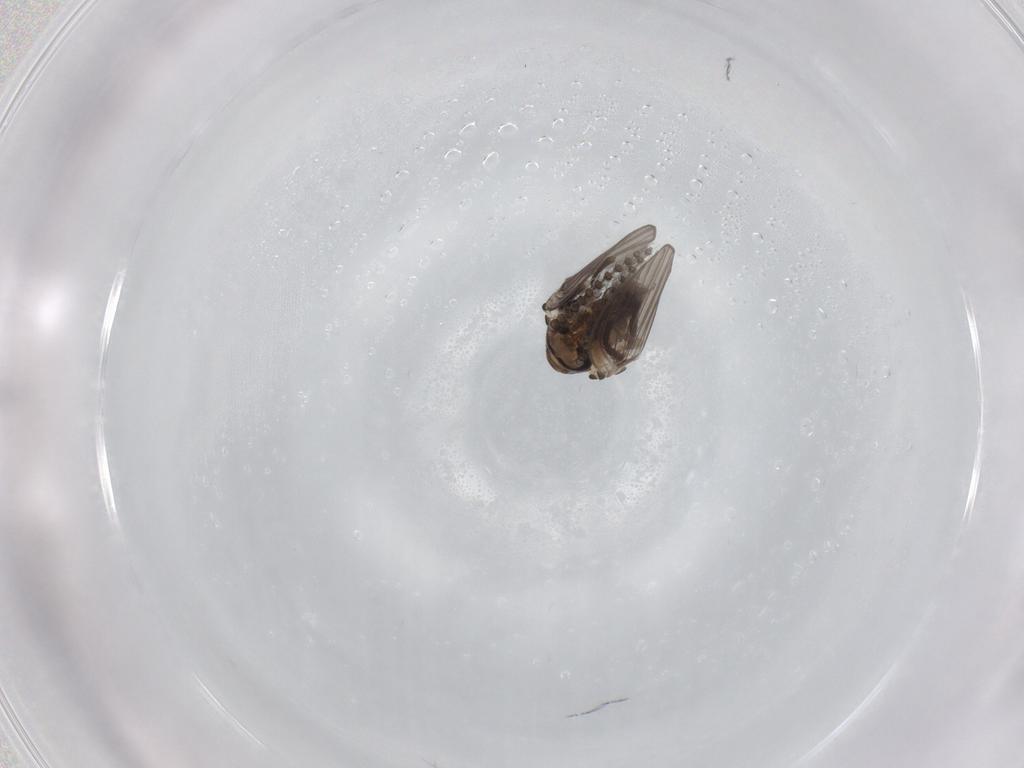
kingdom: Animalia
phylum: Arthropoda
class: Insecta
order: Diptera
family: Psychodidae
